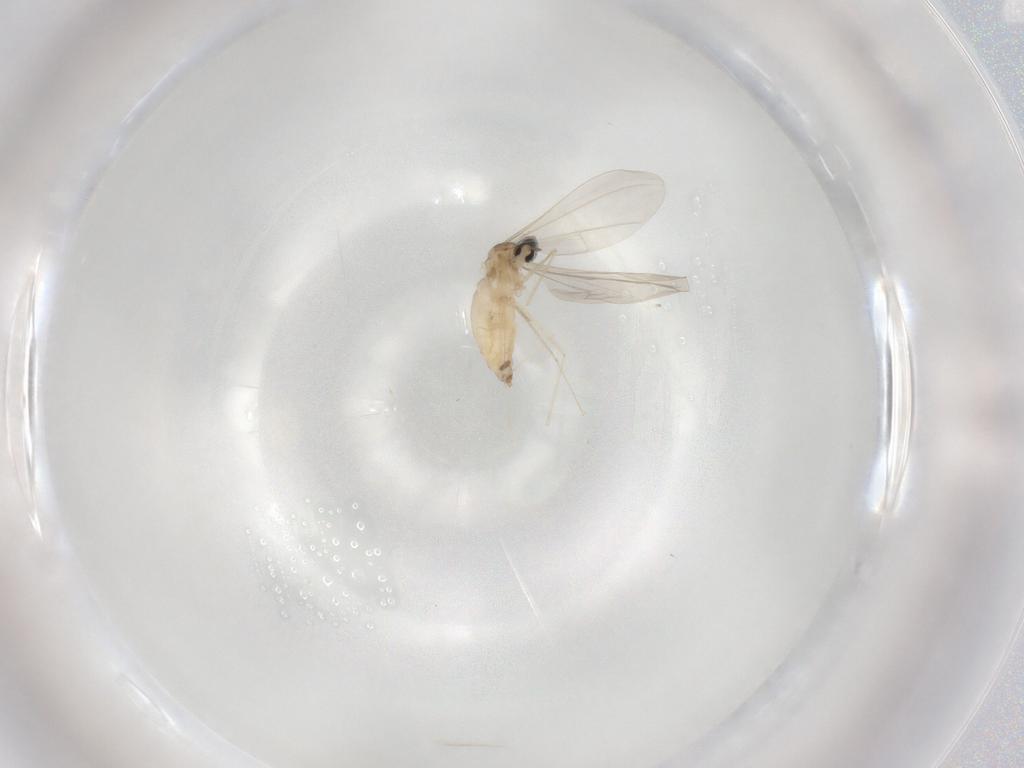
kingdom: Animalia
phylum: Arthropoda
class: Insecta
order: Diptera
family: Cecidomyiidae
